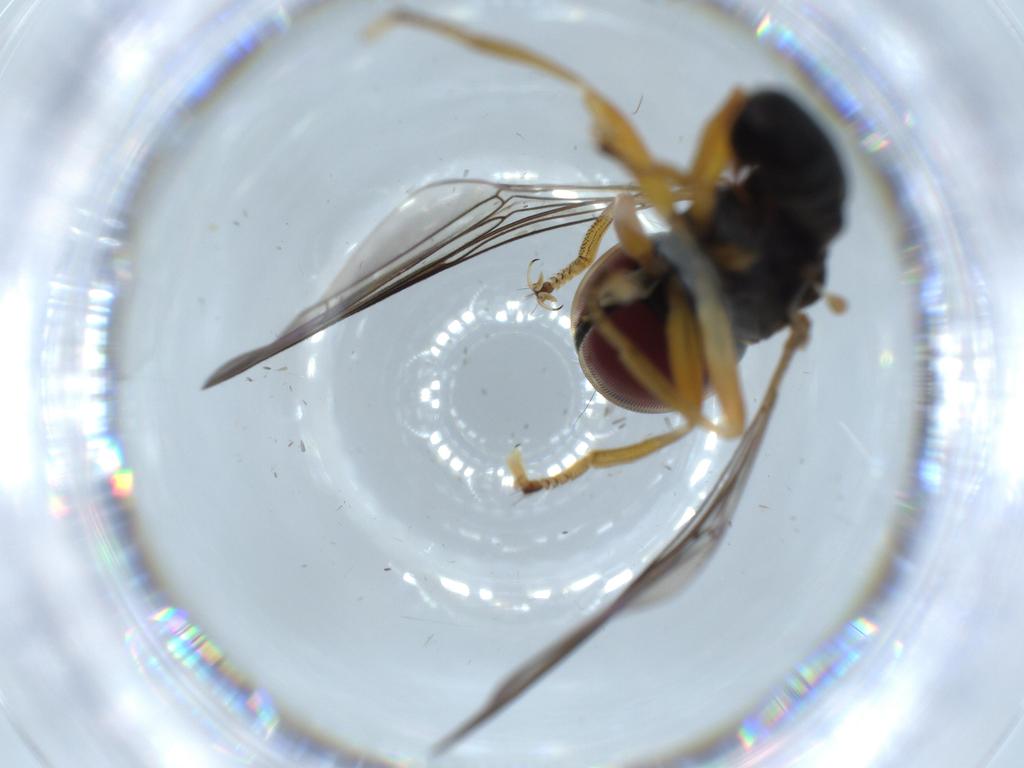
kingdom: Animalia
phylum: Arthropoda
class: Insecta
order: Diptera
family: Pipunculidae
